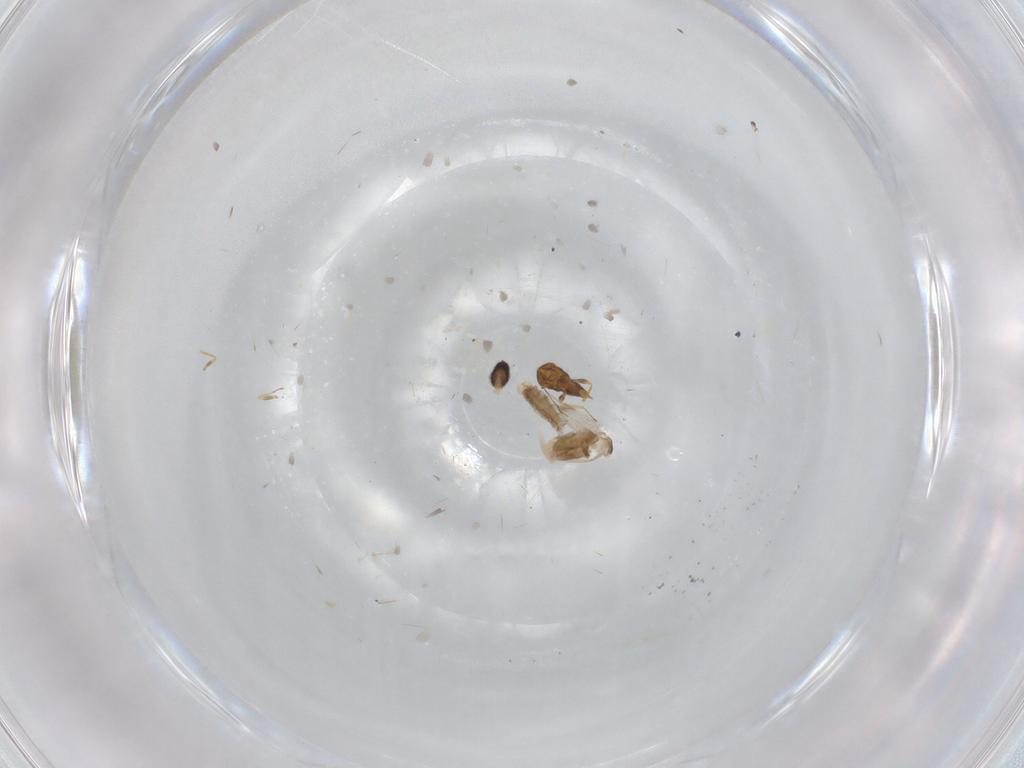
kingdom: Animalia
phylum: Arthropoda
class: Insecta
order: Diptera
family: Cecidomyiidae
